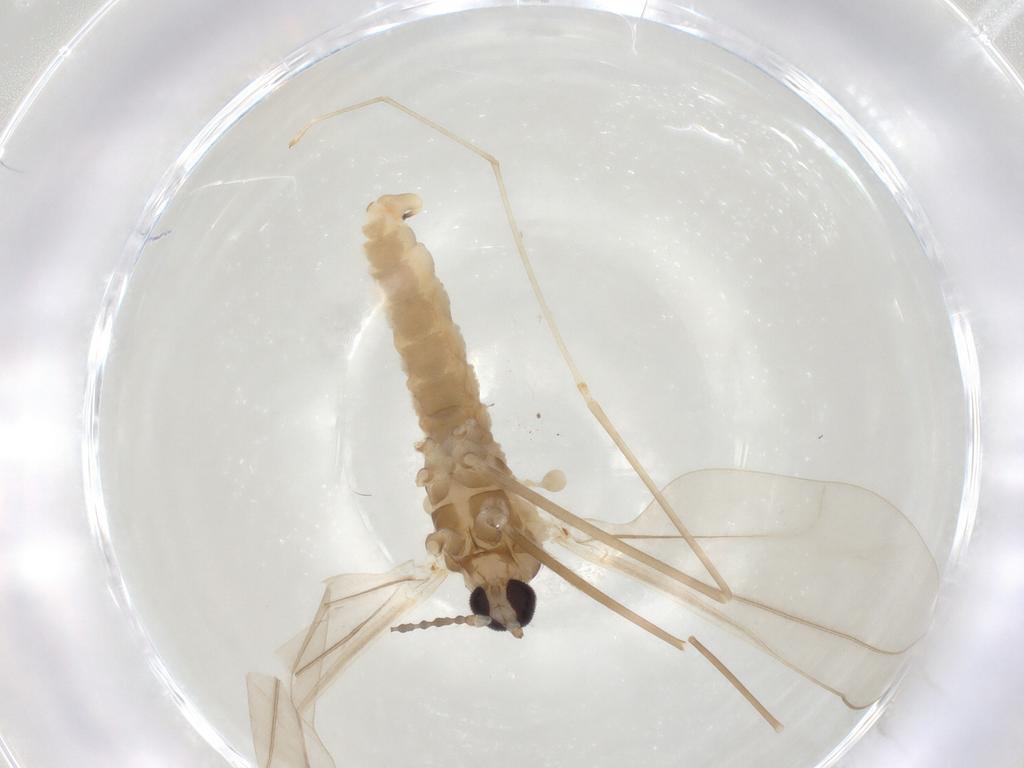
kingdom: Animalia
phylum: Arthropoda
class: Insecta
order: Diptera
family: Cecidomyiidae
